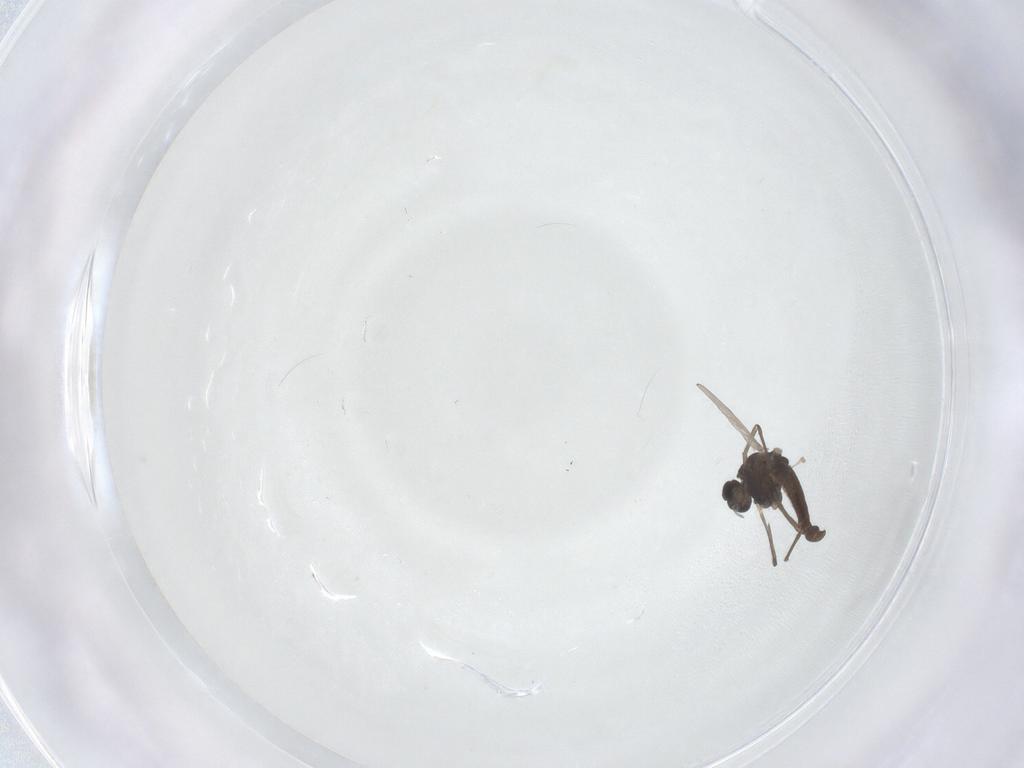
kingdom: Animalia
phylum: Arthropoda
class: Insecta
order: Diptera
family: Chironomidae
